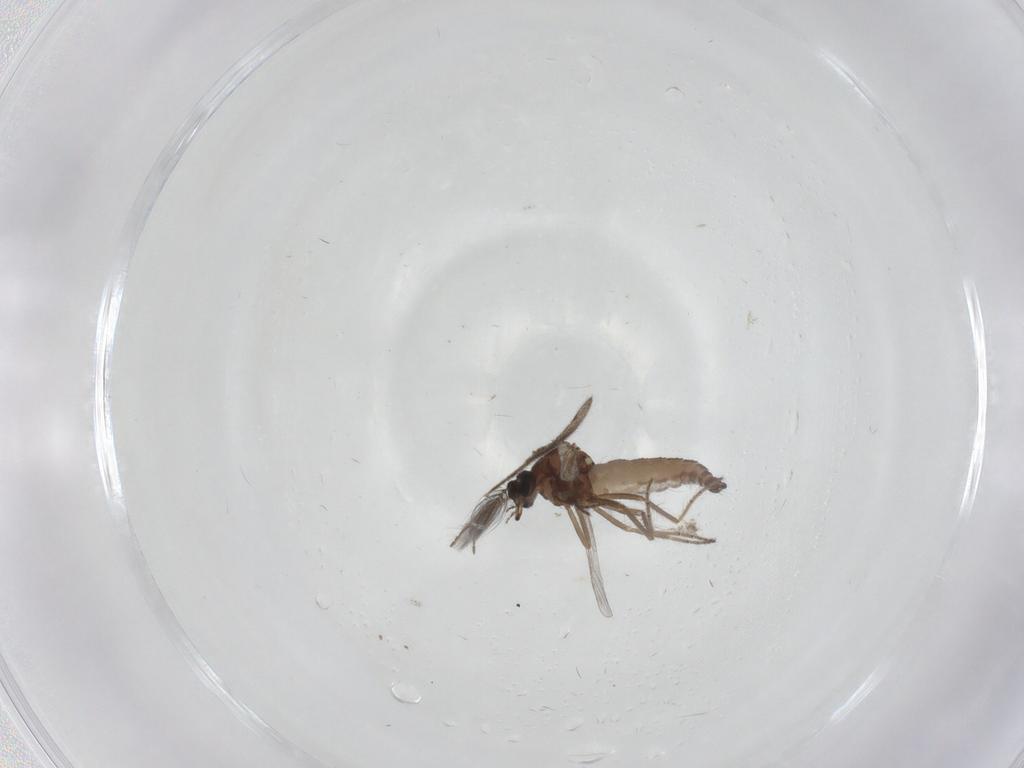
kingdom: Animalia
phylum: Arthropoda
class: Insecta
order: Diptera
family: Ceratopogonidae
